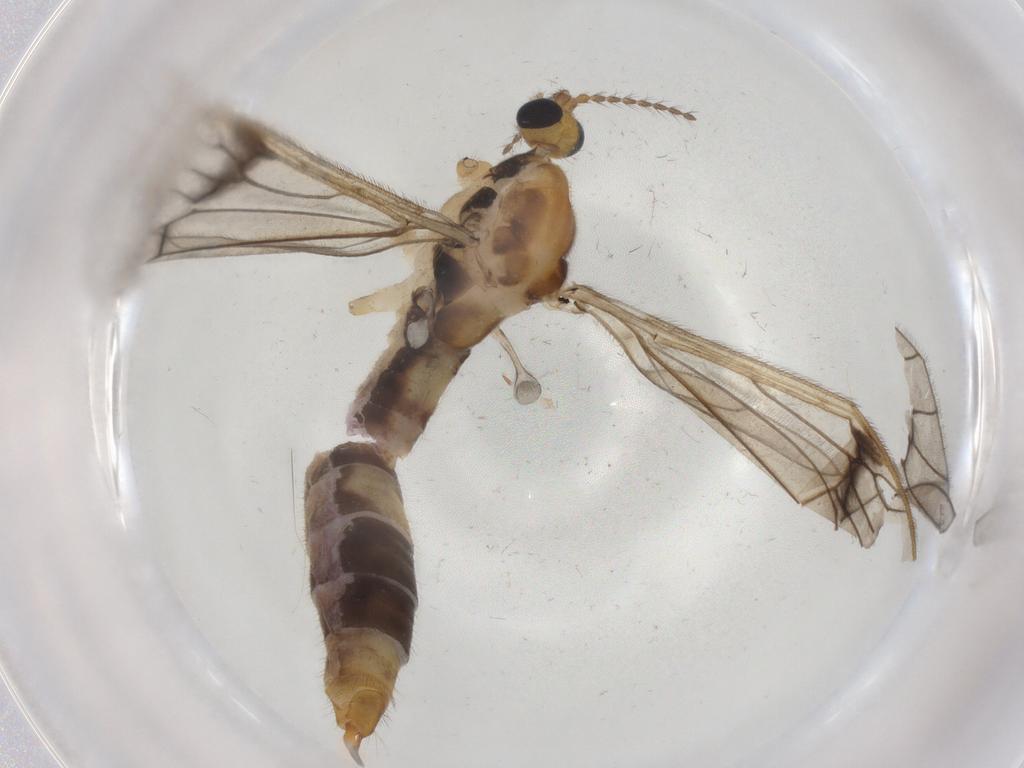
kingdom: Animalia
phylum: Arthropoda
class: Insecta
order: Diptera
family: Limoniidae
